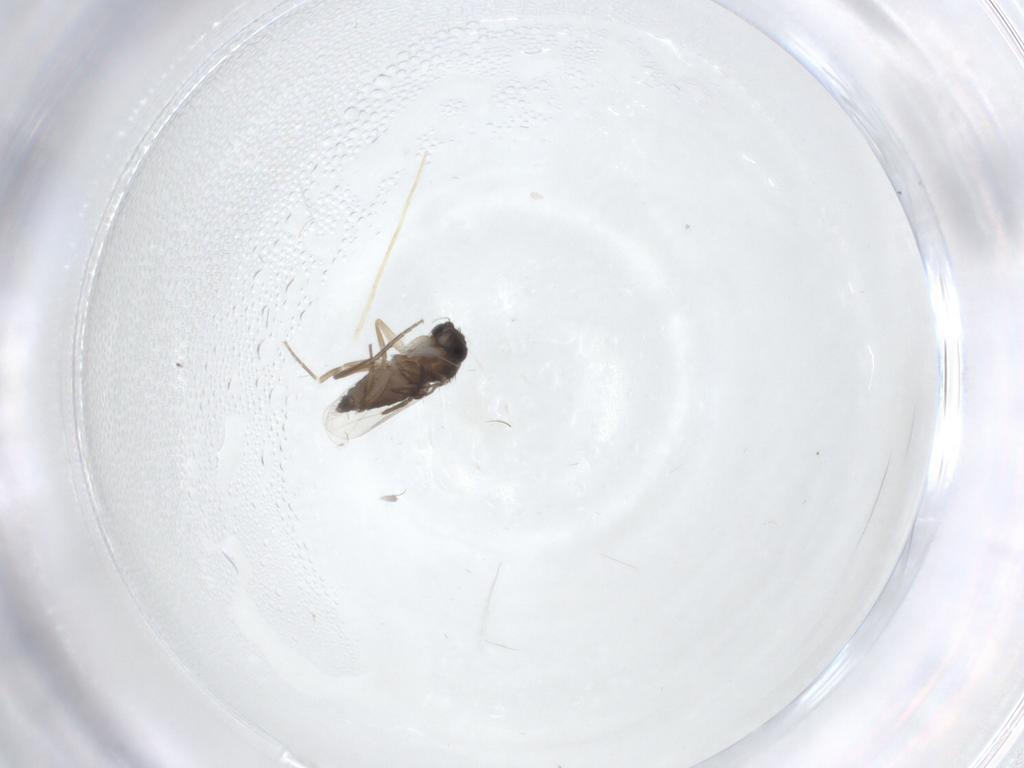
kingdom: Animalia
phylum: Arthropoda
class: Insecta
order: Diptera
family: Phoridae
